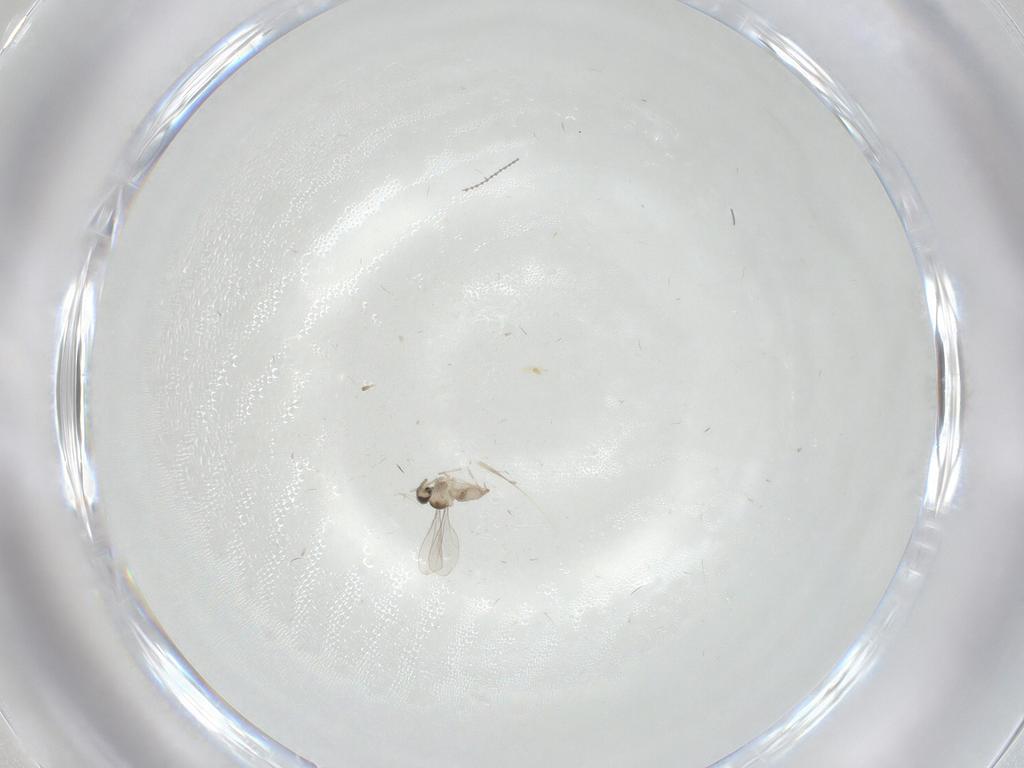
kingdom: Animalia
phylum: Arthropoda
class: Insecta
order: Diptera
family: Cecidomyiidae
